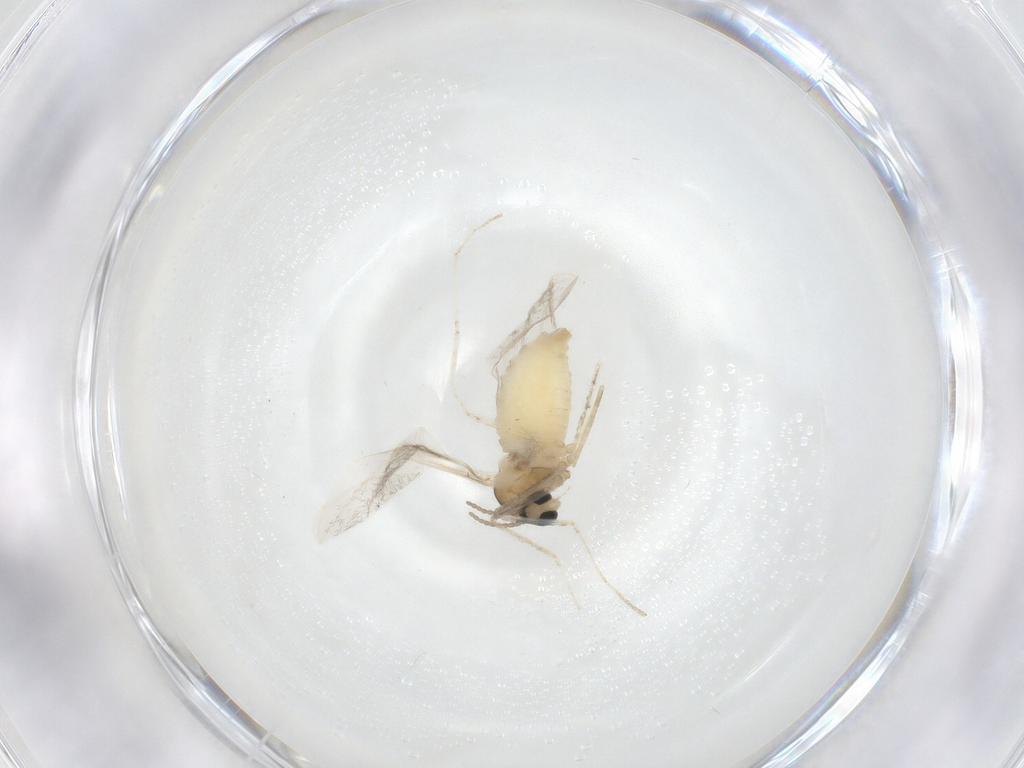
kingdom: Animalia
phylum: Arthropoda
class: Insecta
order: Diptera
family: Cecidomyiidae
